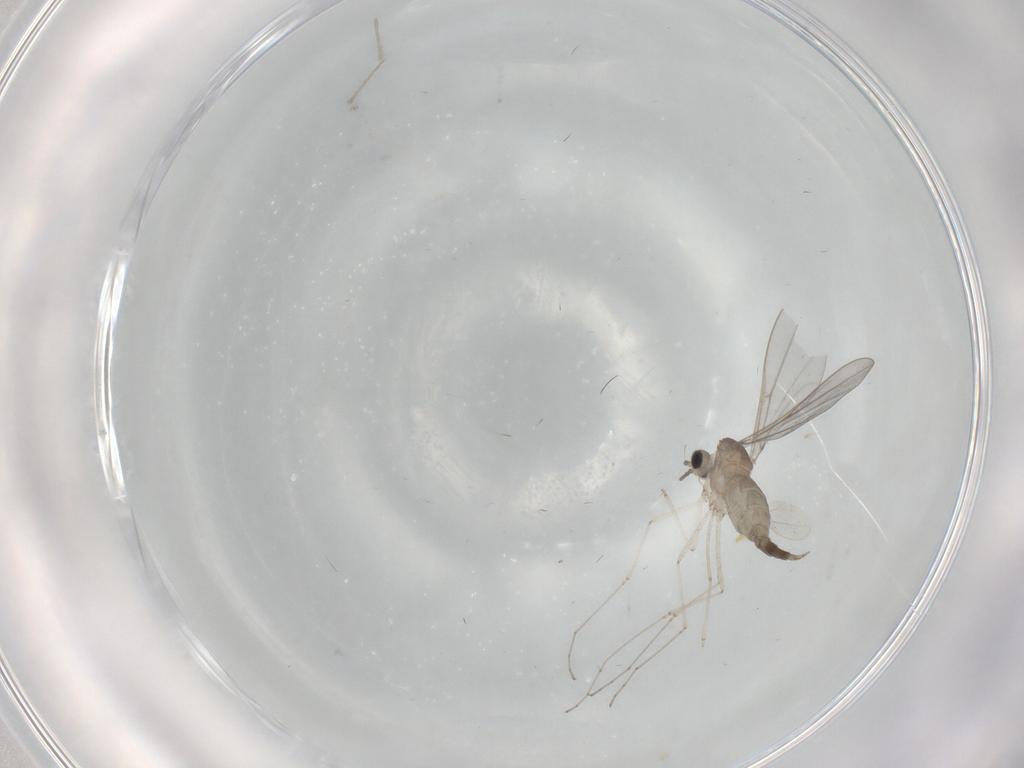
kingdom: Animalia
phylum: Arthropoda
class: Insecta
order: Diptera
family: Cecidomyiidae
